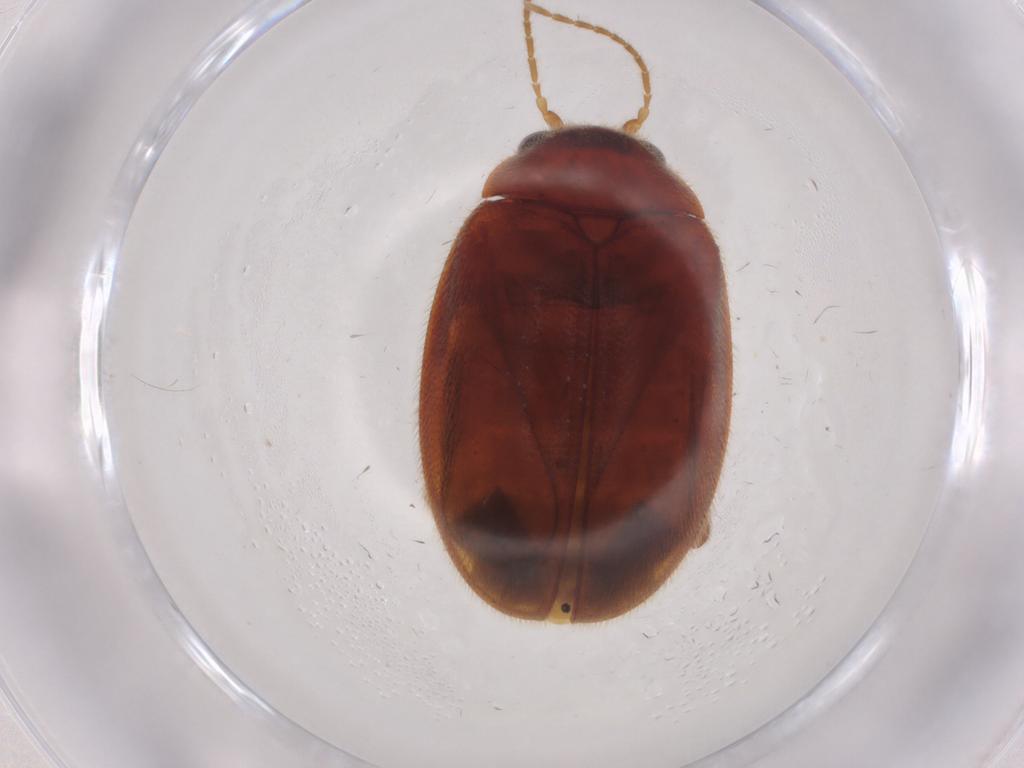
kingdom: Animalia
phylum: Arthropoda
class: Insecta
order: Coleoptera
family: Scirtidae
